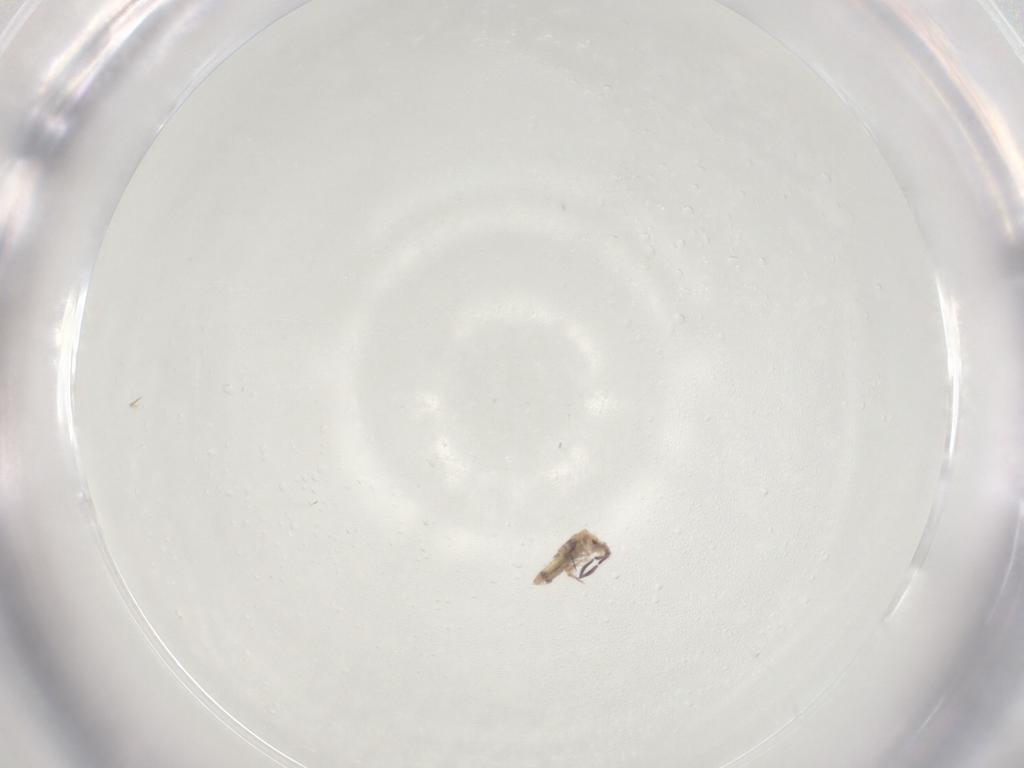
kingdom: Animalia
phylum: Arthropoda
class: Collembola
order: Entomobryomorpha
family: Entomobryidae
